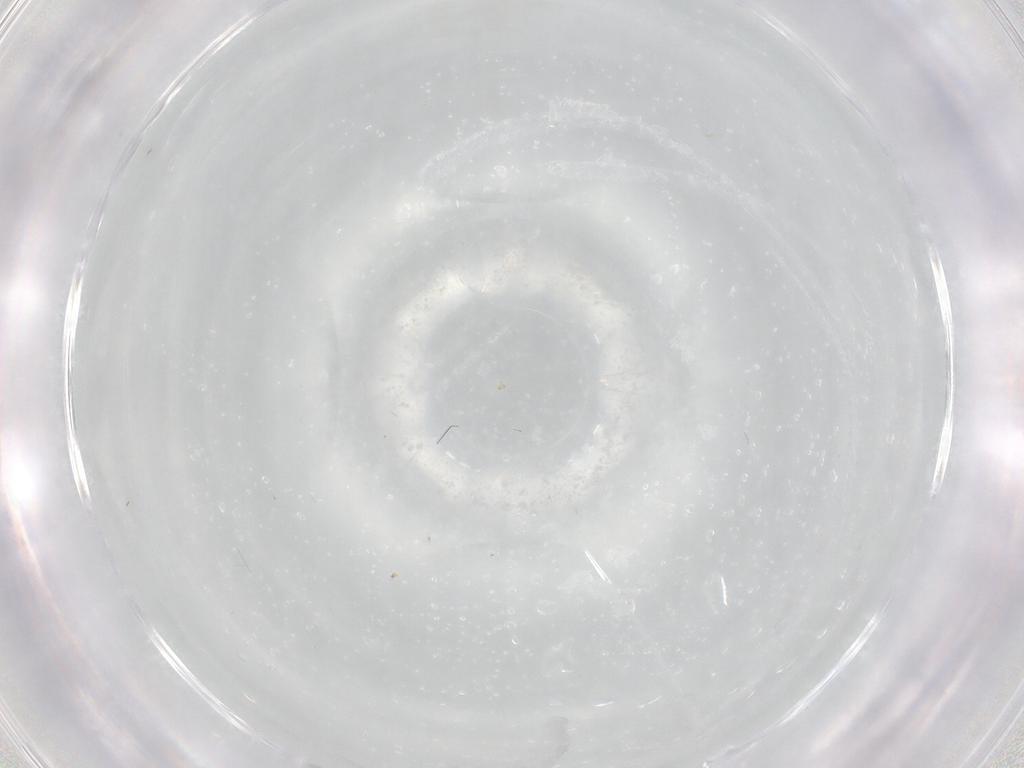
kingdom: Animalia
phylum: Arthropoda
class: Insecta
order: Diptera
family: Cecidomyiidae
